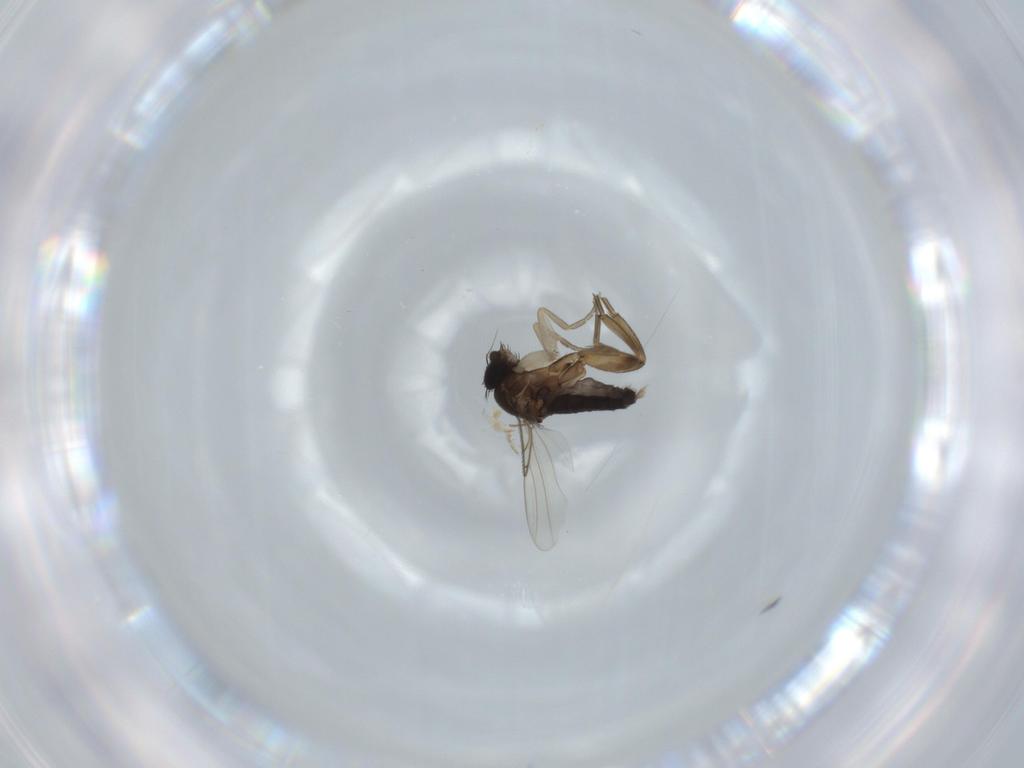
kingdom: Animalia
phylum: Arthropoda
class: Insecta
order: Diptera
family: Phoridae
